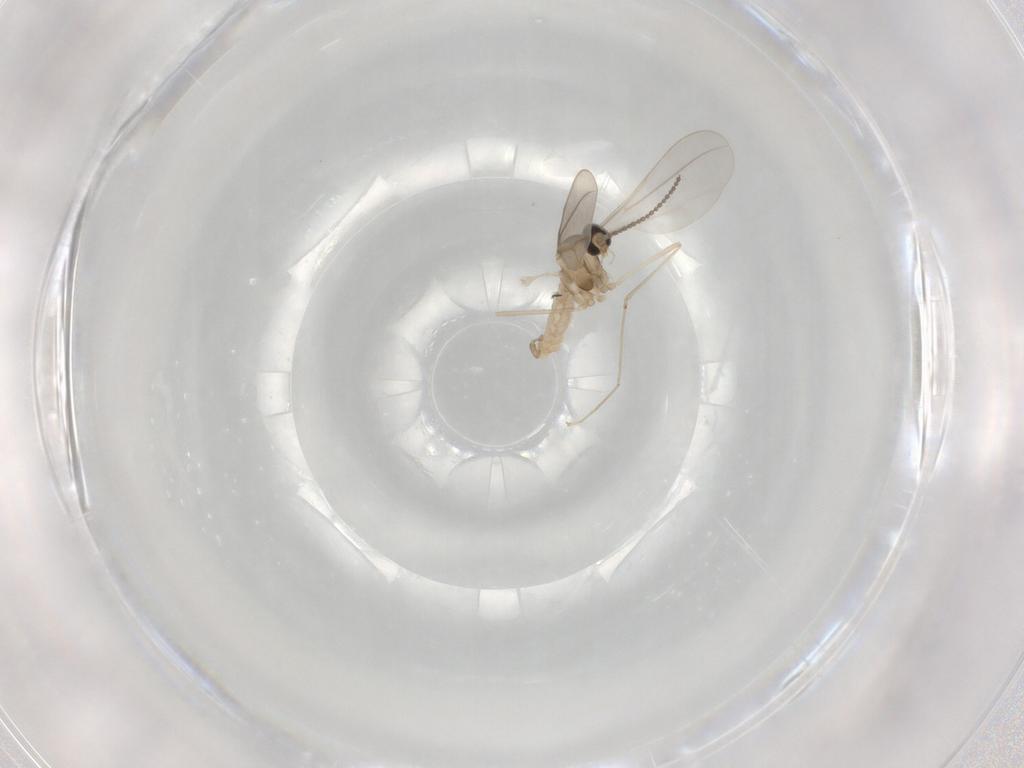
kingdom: Animalia
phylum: Arthropoda
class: Insecta
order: Diptera
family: Cecidomyiidae
